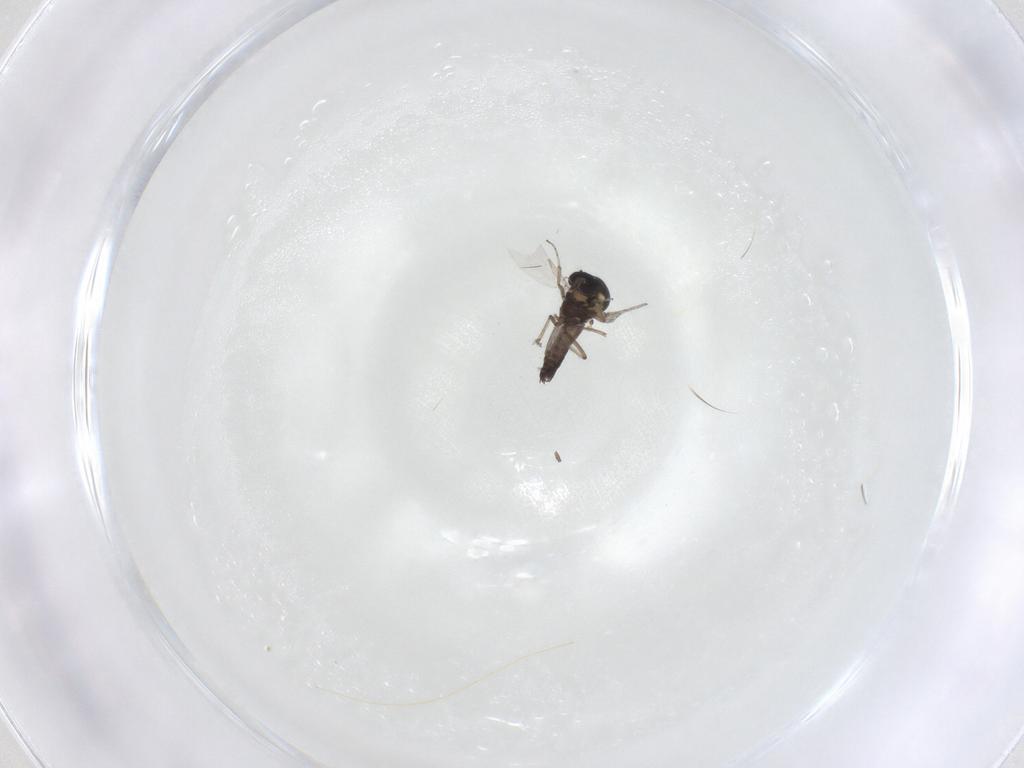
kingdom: Animalia
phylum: Arthropoda
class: Insecta
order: Diptera
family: Ceratopogonidae
